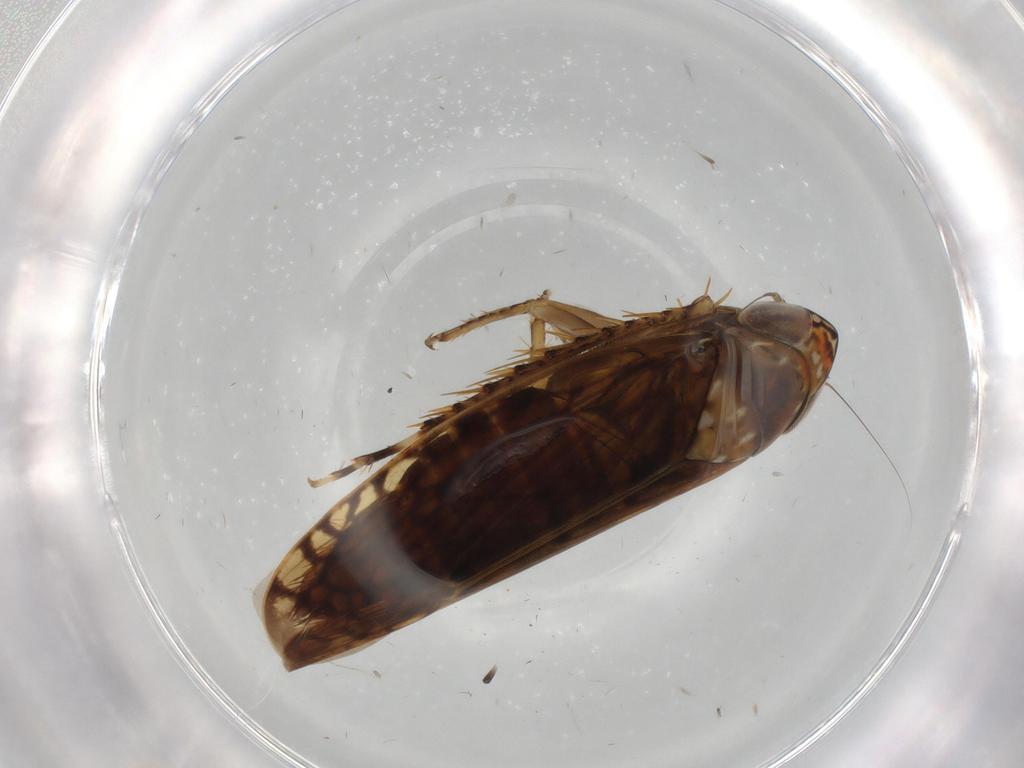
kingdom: Animalia
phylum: Arthropoda
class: Insecta
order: Hemiptera
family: Cicadellidae
